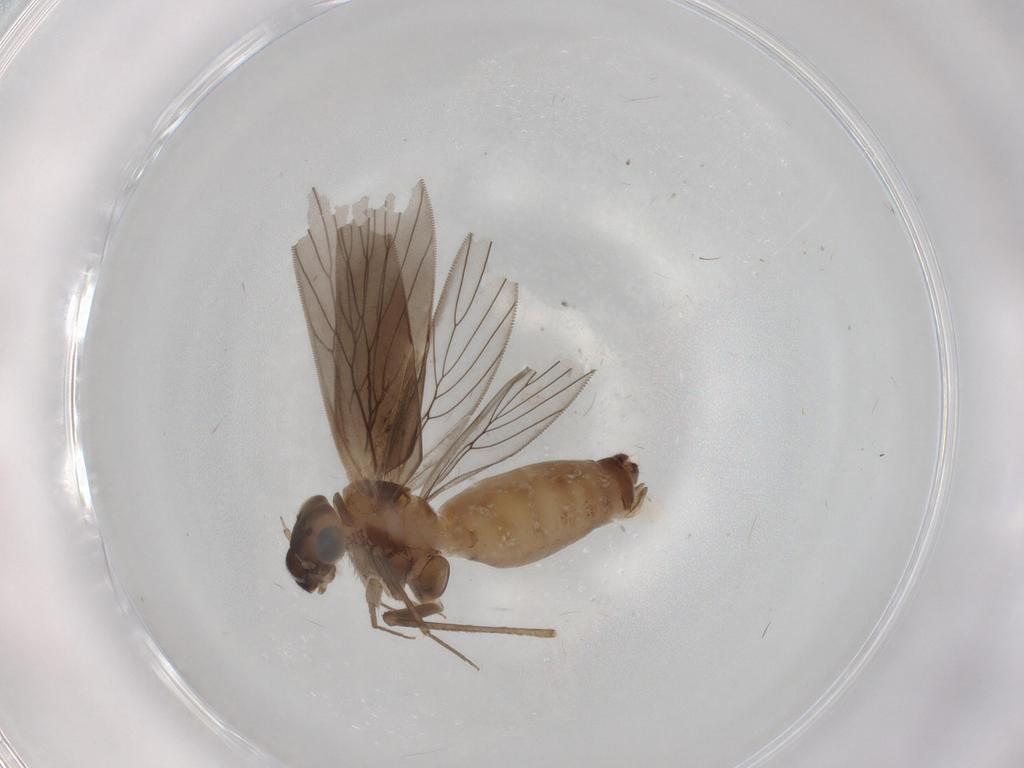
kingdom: Animalia
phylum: Arthropoda
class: Insecta
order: Psocodea
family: Lepidopsocidae
